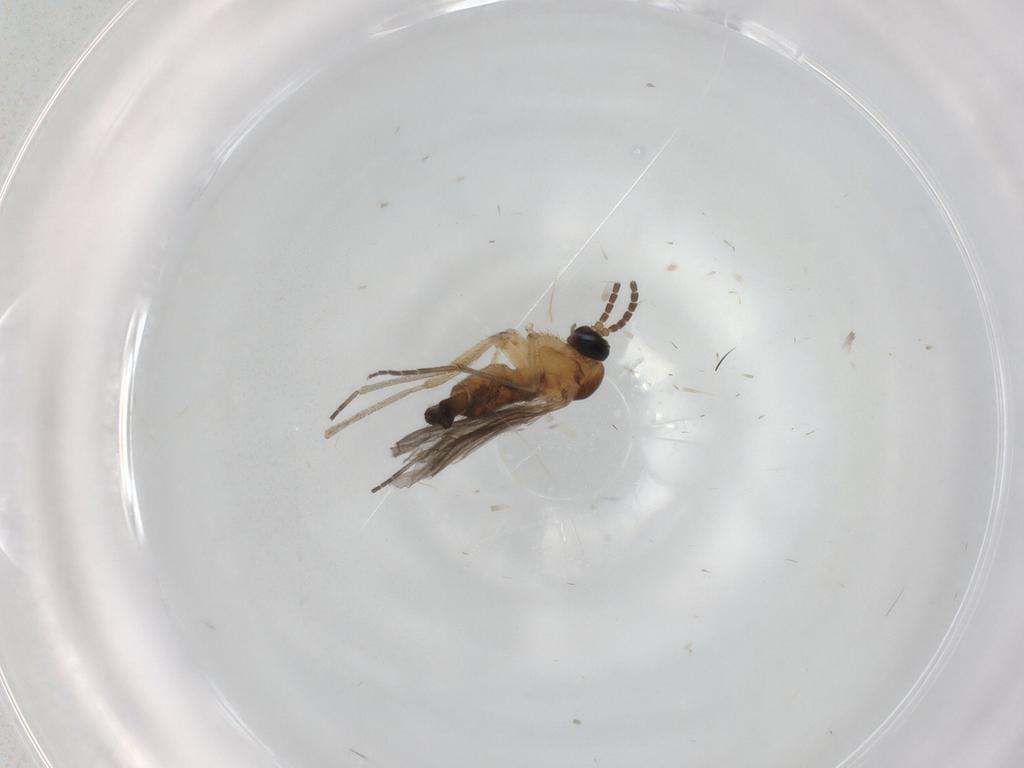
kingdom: Animalia
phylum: Arthropoda
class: Insecta
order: Diptera
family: Sciaridae
